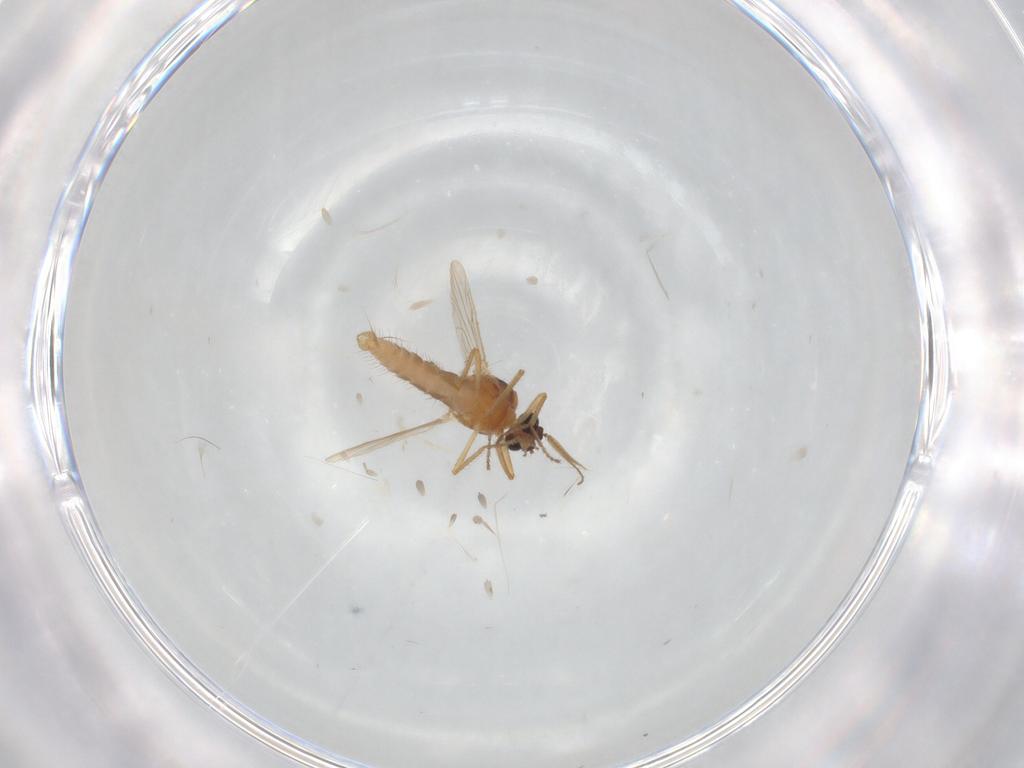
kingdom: Animalia
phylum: Arthropoda
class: Insecta
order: Diptera
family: Ceratopogonidae
